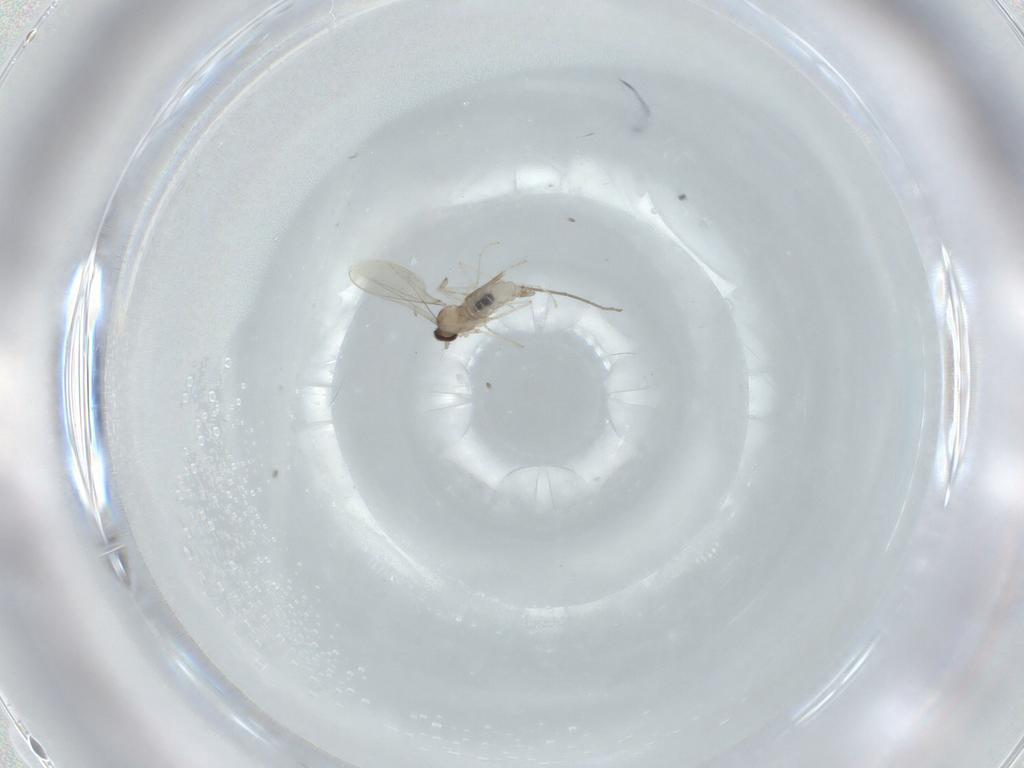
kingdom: Animalia
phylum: Arthropoda
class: Insecta
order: Diptera
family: Cecidomyiidae
